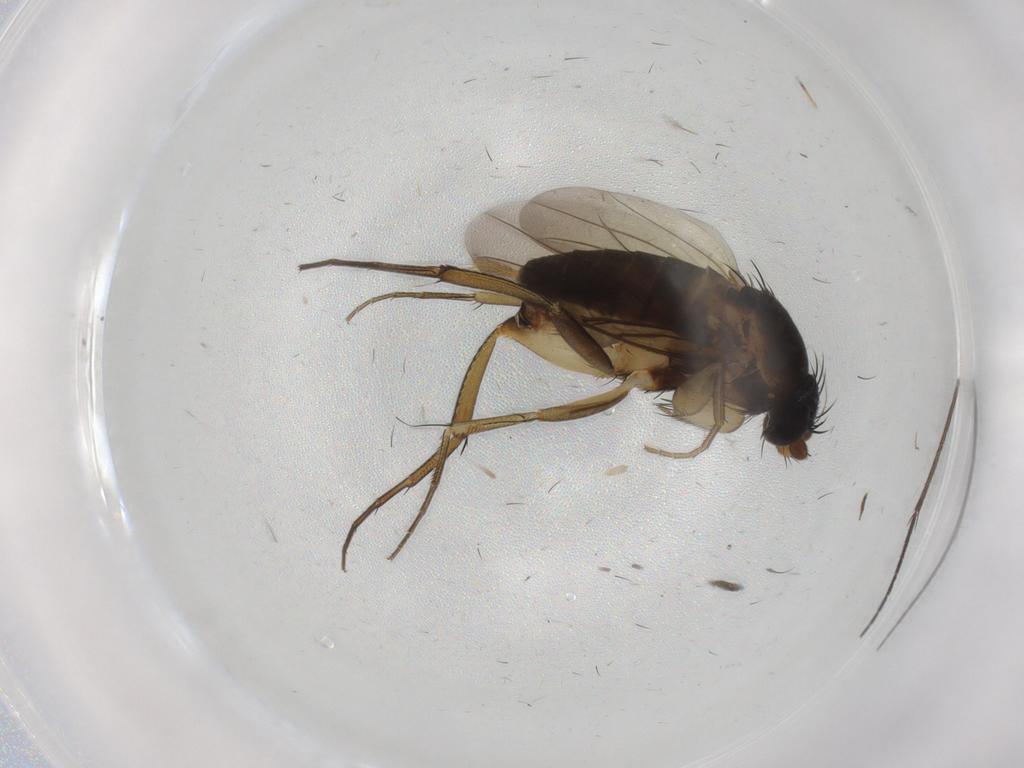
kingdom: Animalia
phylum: Arthropoda
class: Insecta
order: Diptera
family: Phoridae
